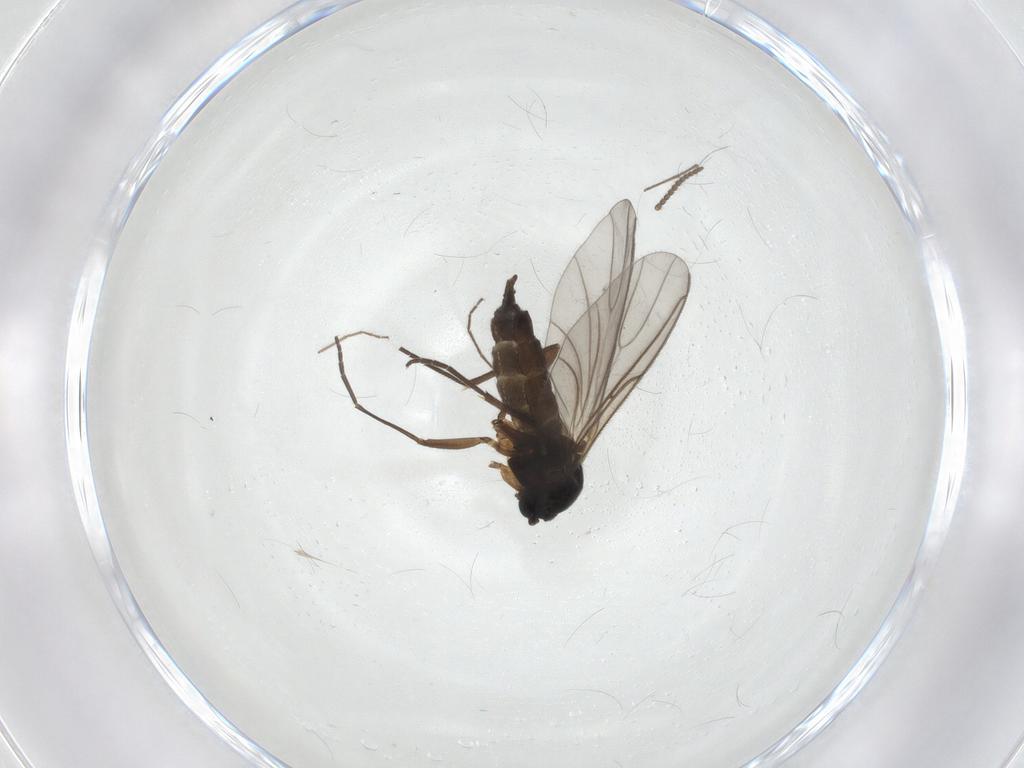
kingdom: Animalia
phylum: Arthropoda
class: Insecta
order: Diptera
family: Sciaridae
